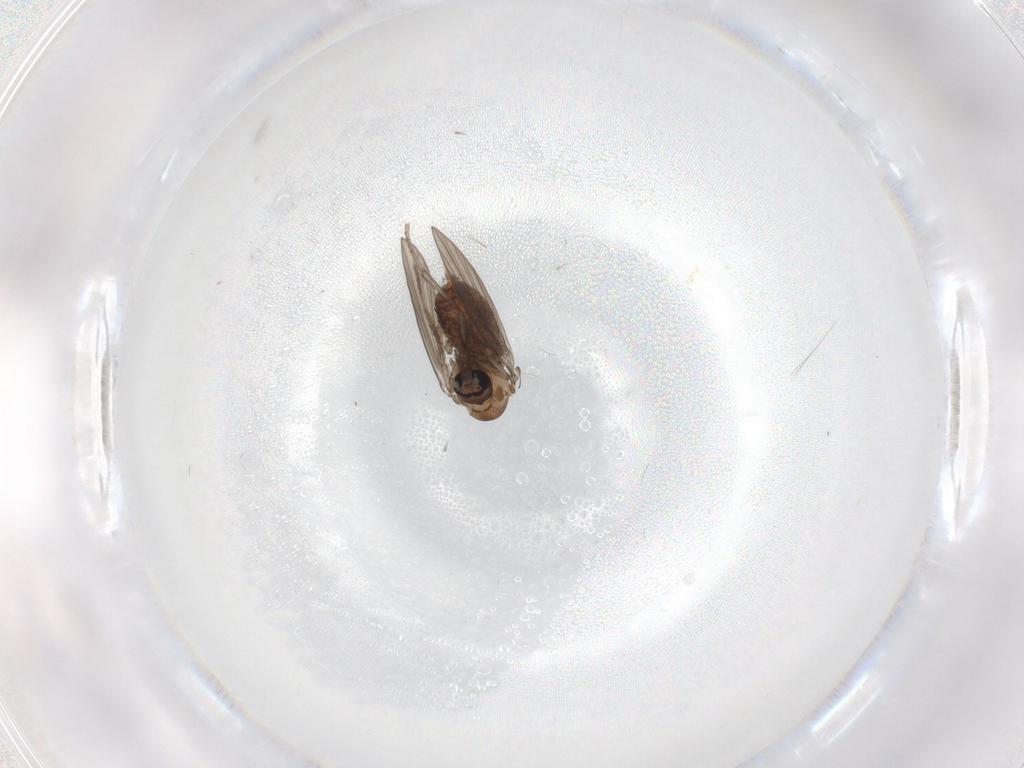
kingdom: Animalia
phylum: Arthropoda
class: Insecta
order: Diptera
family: Psychodidae
